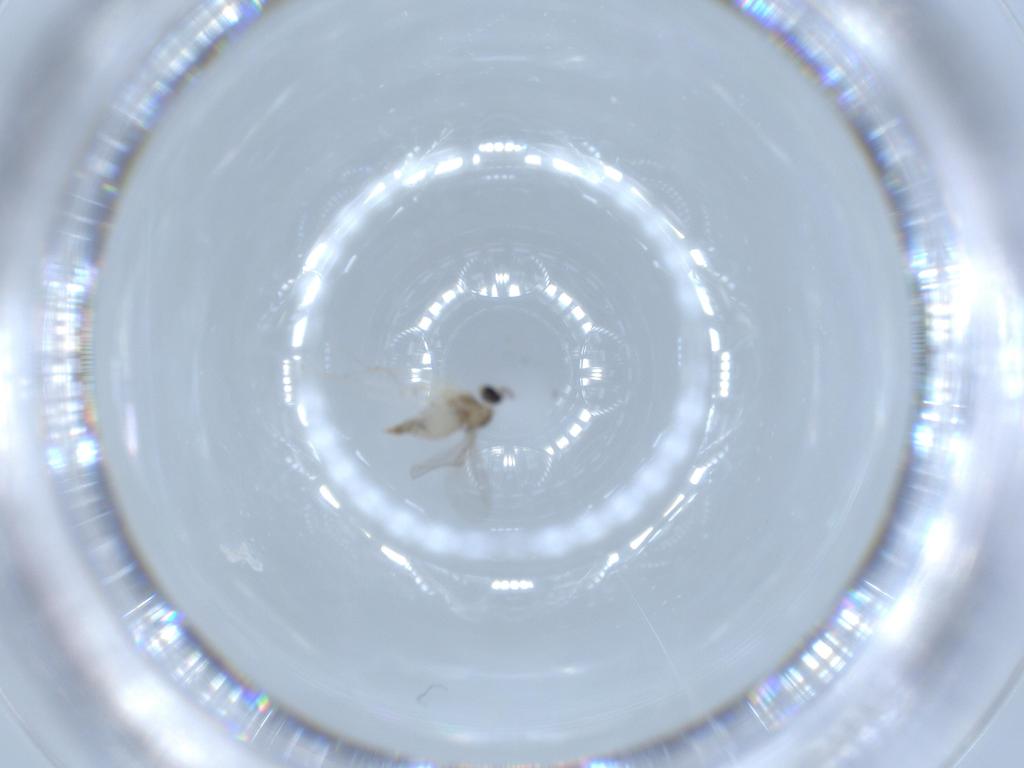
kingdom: Animalia
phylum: Arthropoda
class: Insecta
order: Diptera
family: Cecidomyiidae
